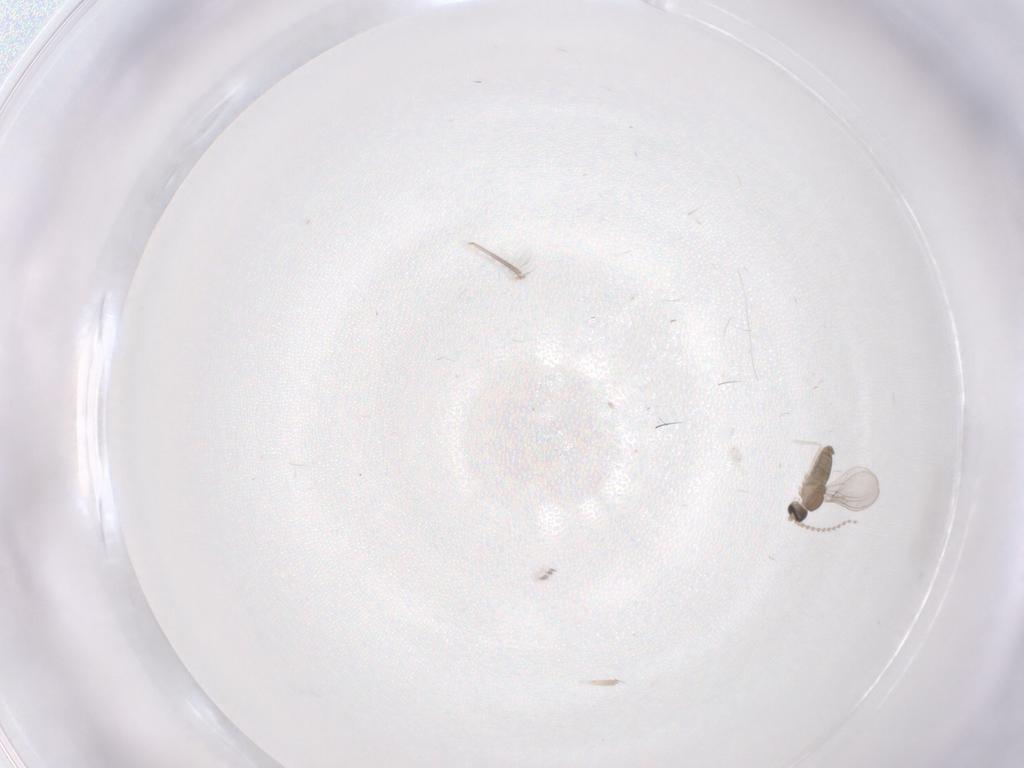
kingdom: Animalia
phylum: Arthropoda
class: Insecta
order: Diptera
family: Cecidomyiidae
